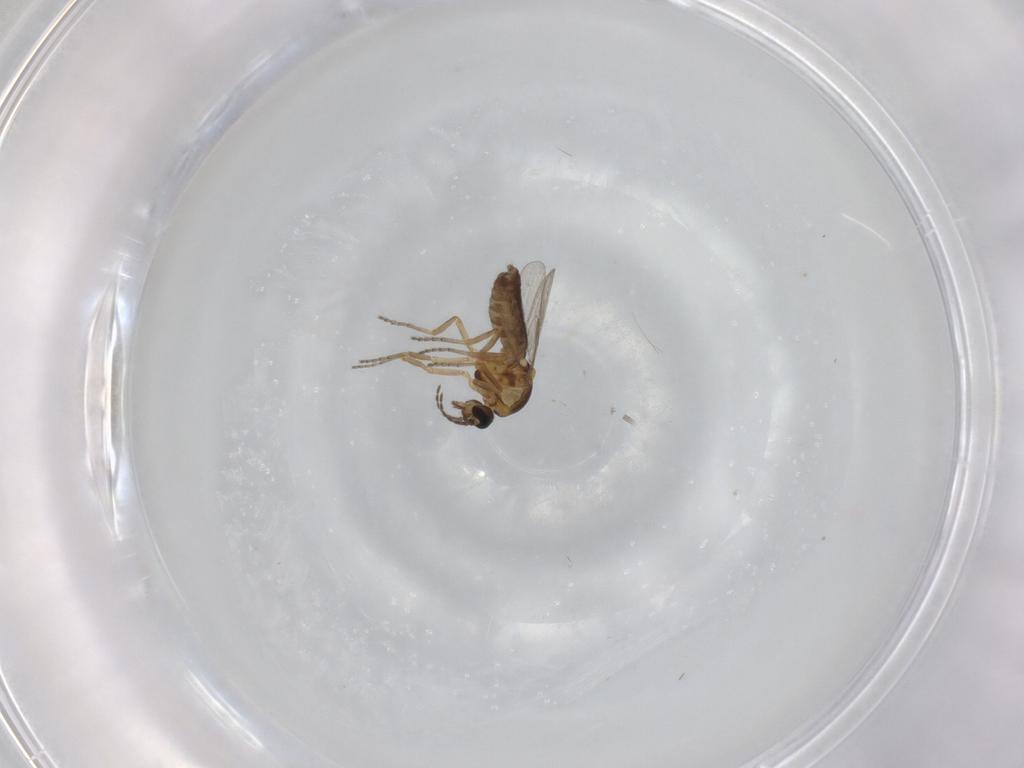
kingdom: Animalia
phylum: Arthropoda
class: Insecta
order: Diptera
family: Ceratopogonidae
